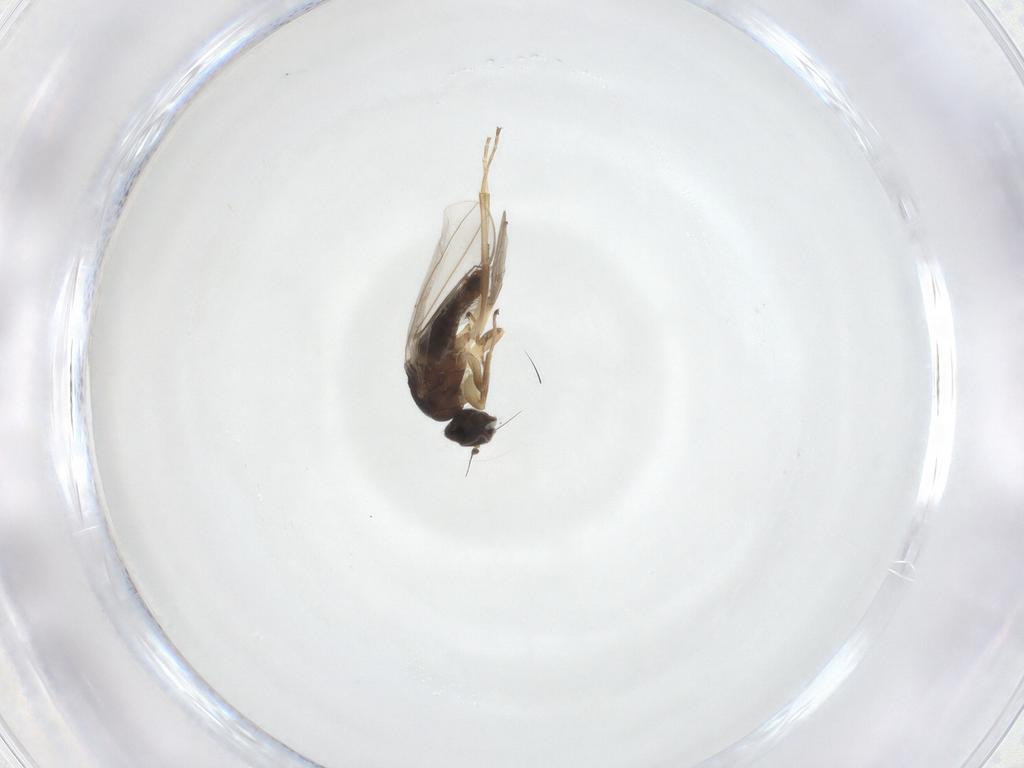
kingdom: Animalia
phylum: Arthropoda
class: Insecta
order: Diptera
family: Hybotidae
